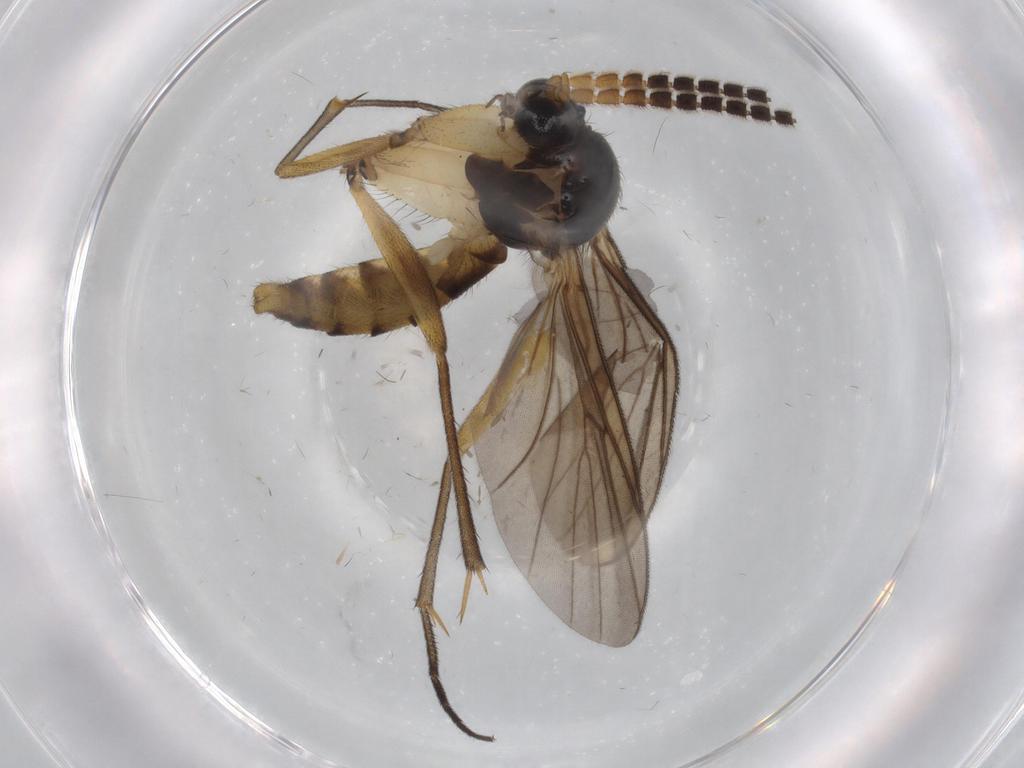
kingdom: Animalia
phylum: Arthropoda
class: Insecta
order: Diptera
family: Mycetophilidae
